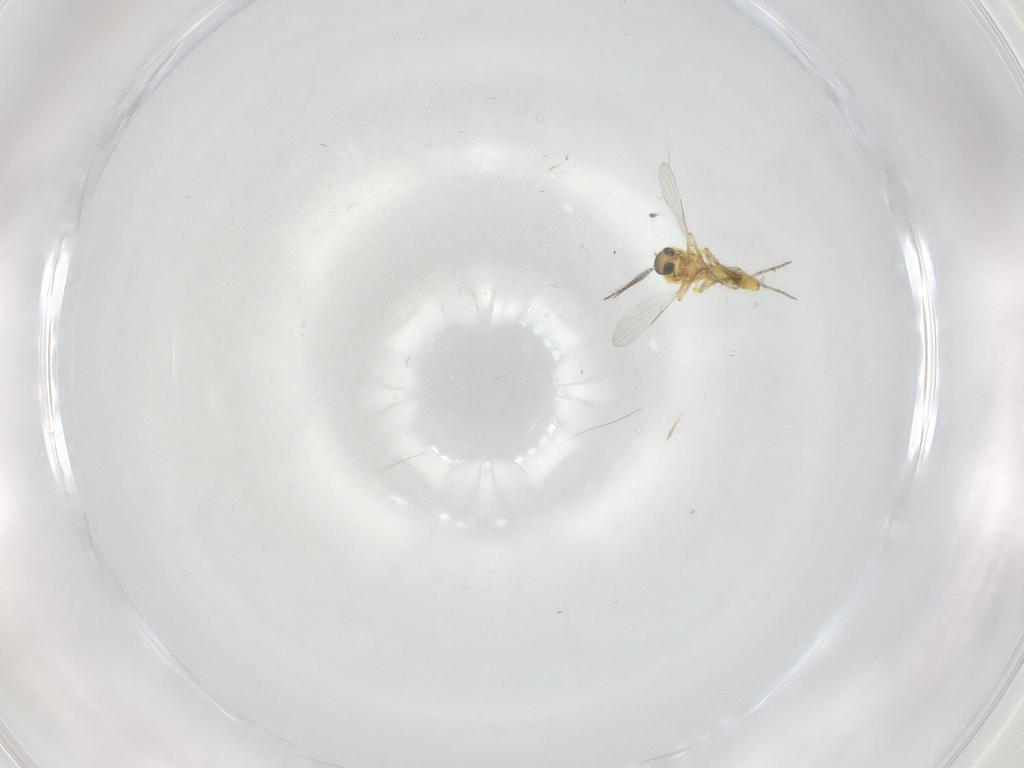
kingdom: Animalia
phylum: Arthropoda
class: Insecta
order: Diptera
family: Ceratopogonidae
